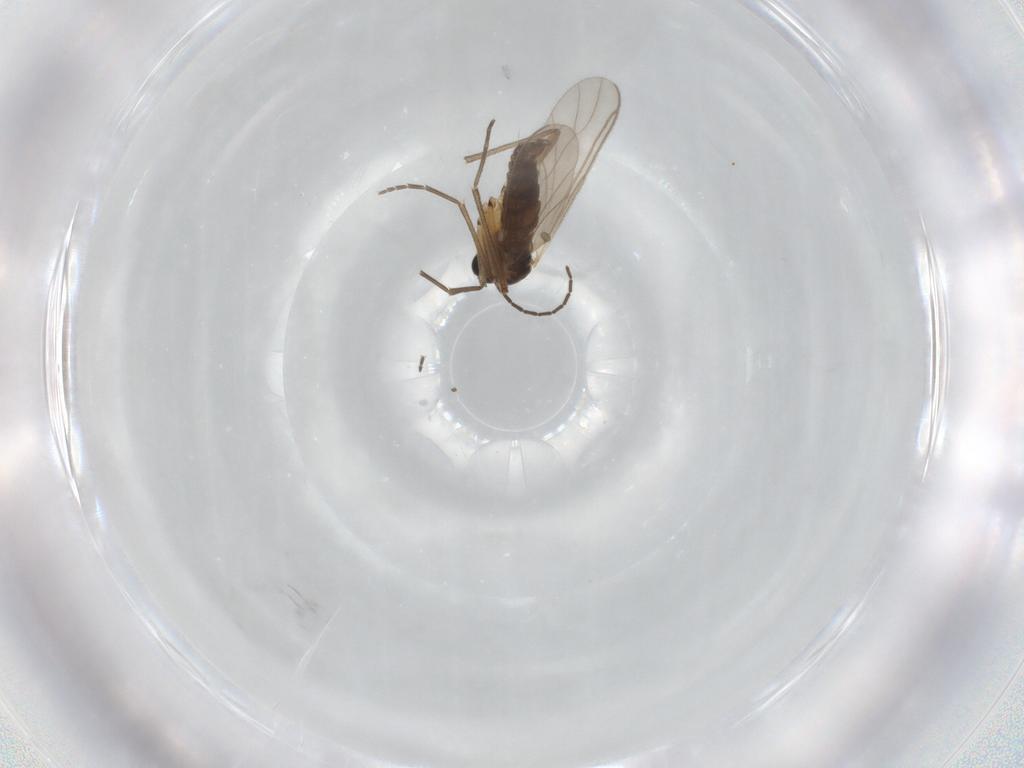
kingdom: Animalia
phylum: Arthropoda
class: Insecta
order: Diptera
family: Sciaridae
